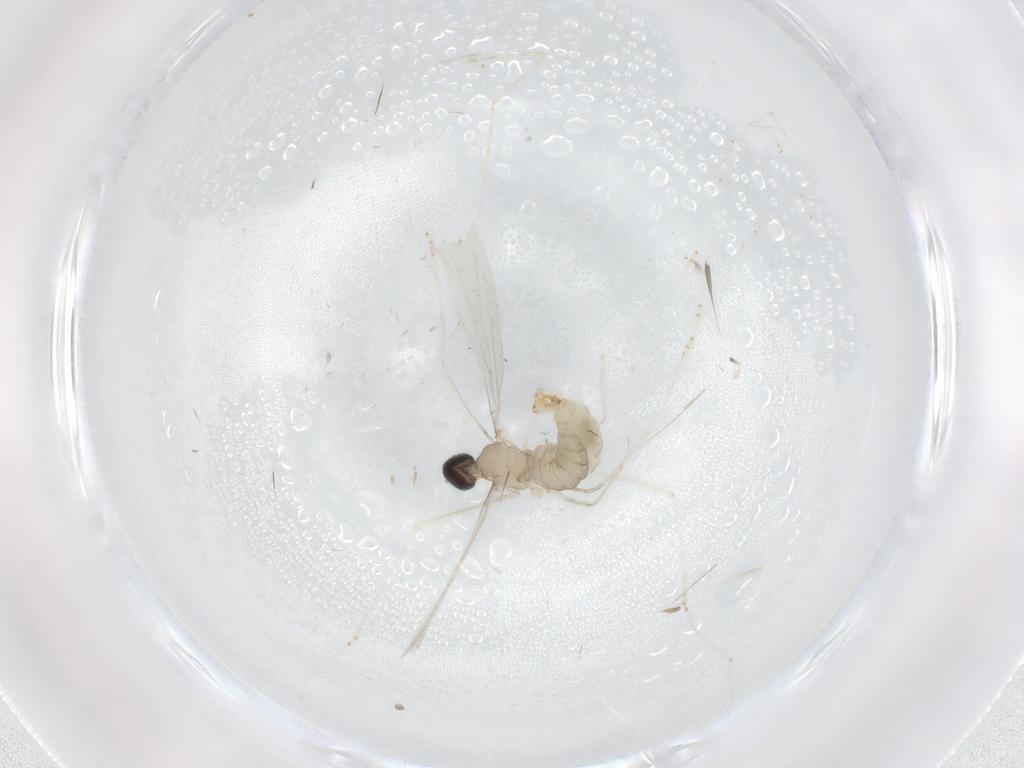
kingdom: Animalia
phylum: Arthropoda
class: Insecta
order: Diptera
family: Cecidomyiidae
